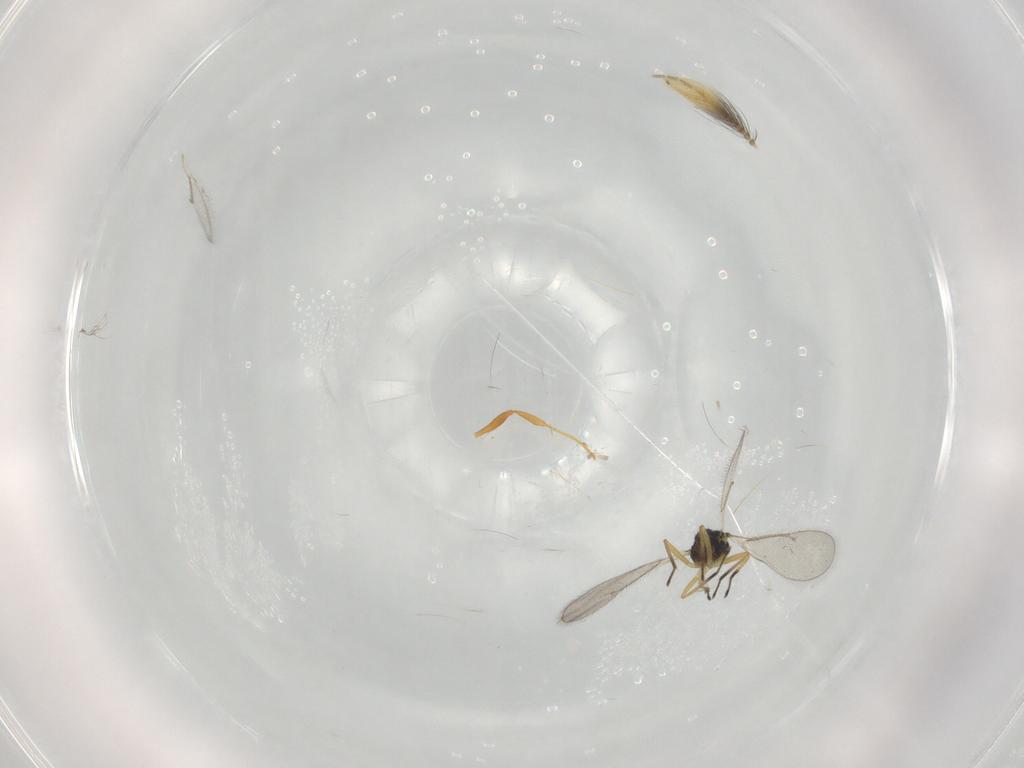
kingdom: Animalia
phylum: Arthropoda
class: Insecta
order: Hymenoptera
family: Eulophidae
